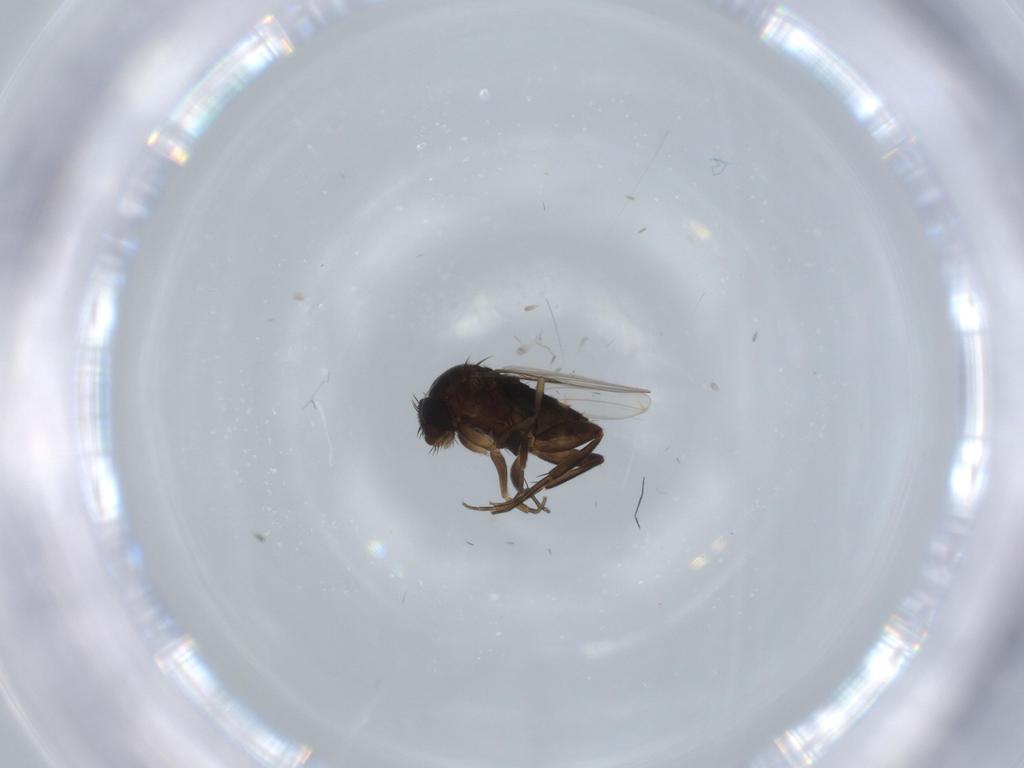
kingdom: Animalia
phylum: Arthropoda
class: Insecta
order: Diptera
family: Phoridae
